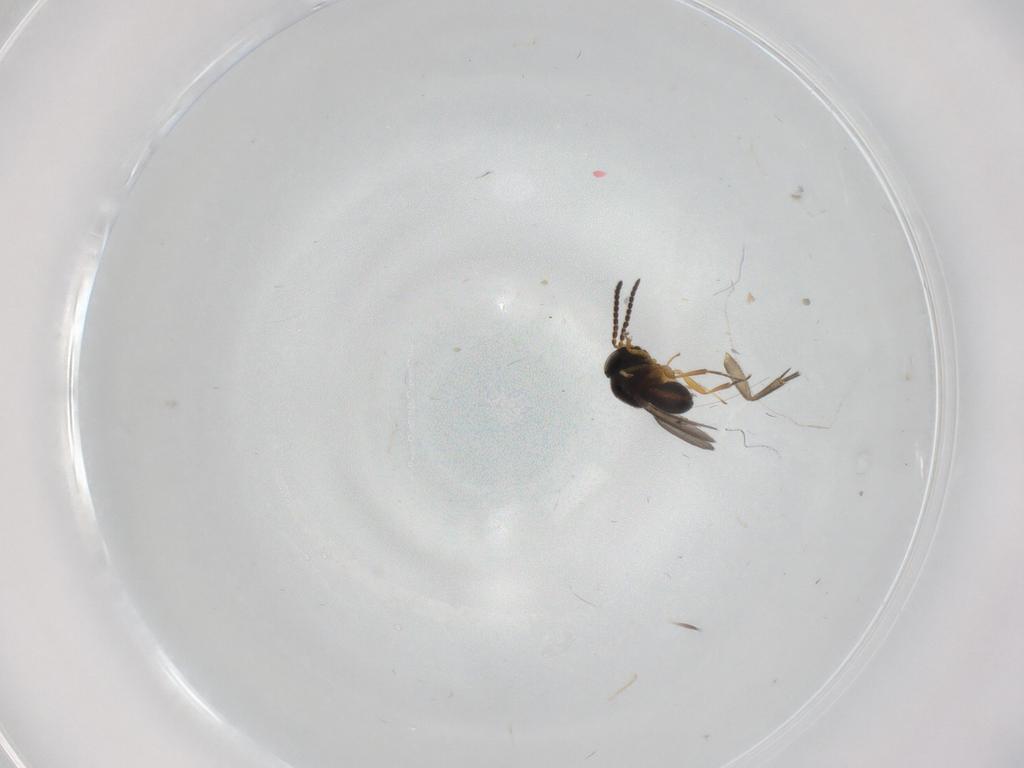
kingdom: Animalia
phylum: Arthropoda
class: Insecta
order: Hymenoptera
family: Scelionidae
